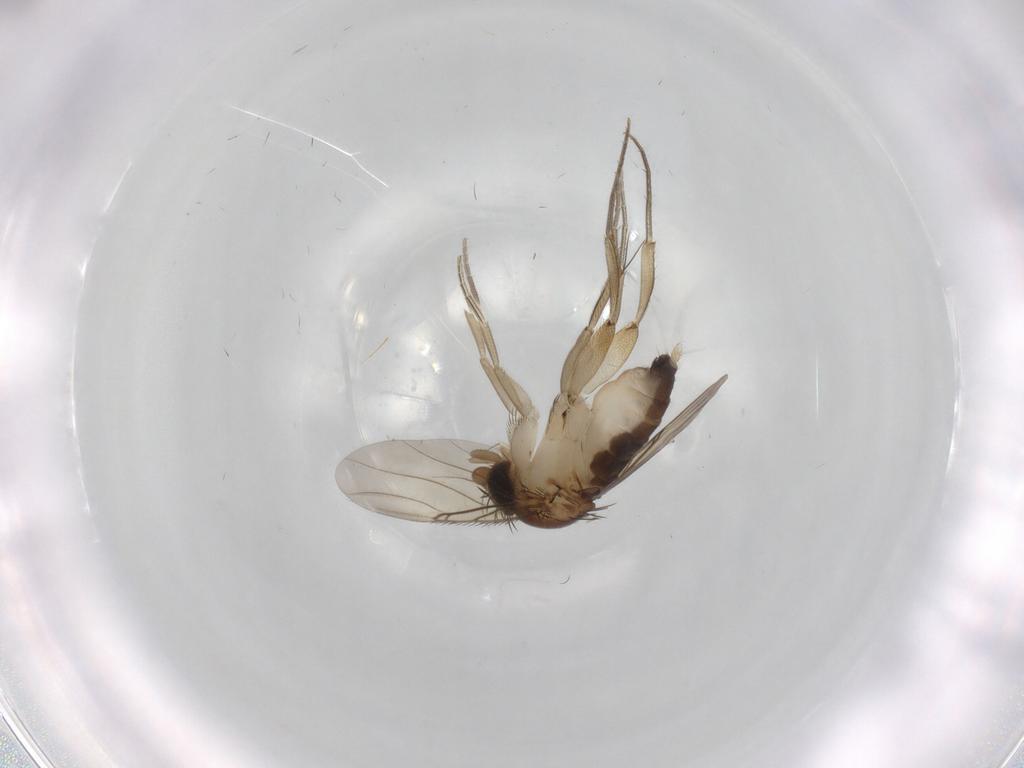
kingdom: Animalia
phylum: Arthropoda
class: Insecta
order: Diptera
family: Phoridae
